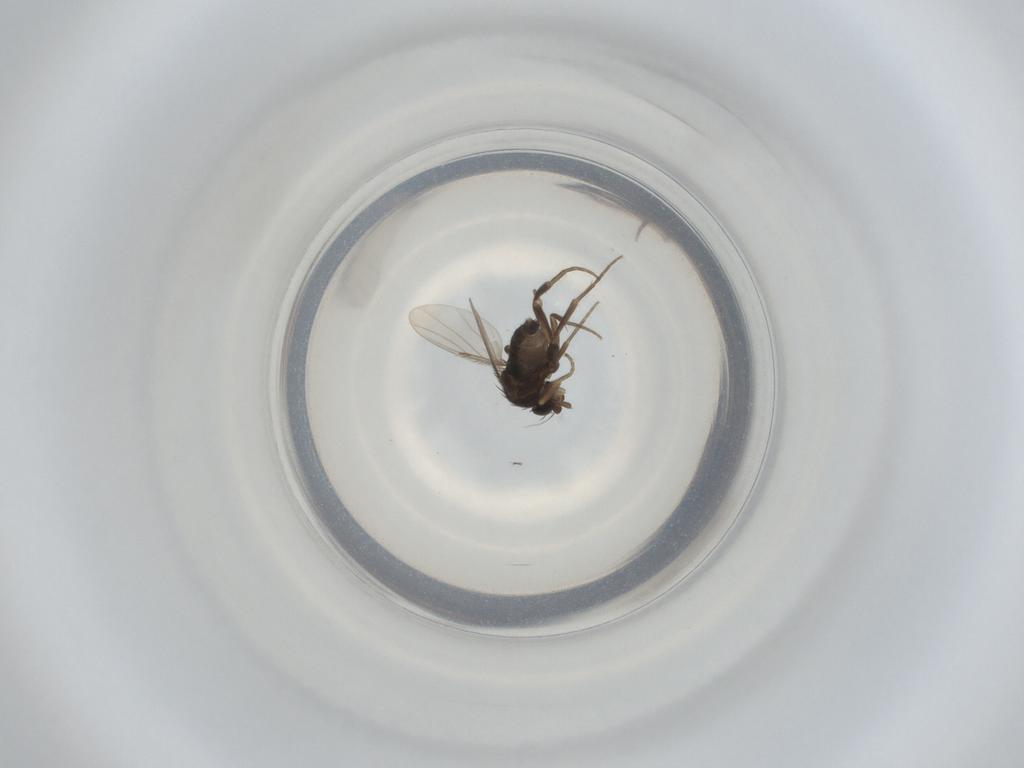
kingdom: Animalia
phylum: Arthropoda
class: Insecta
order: Diptera
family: Phoridae
